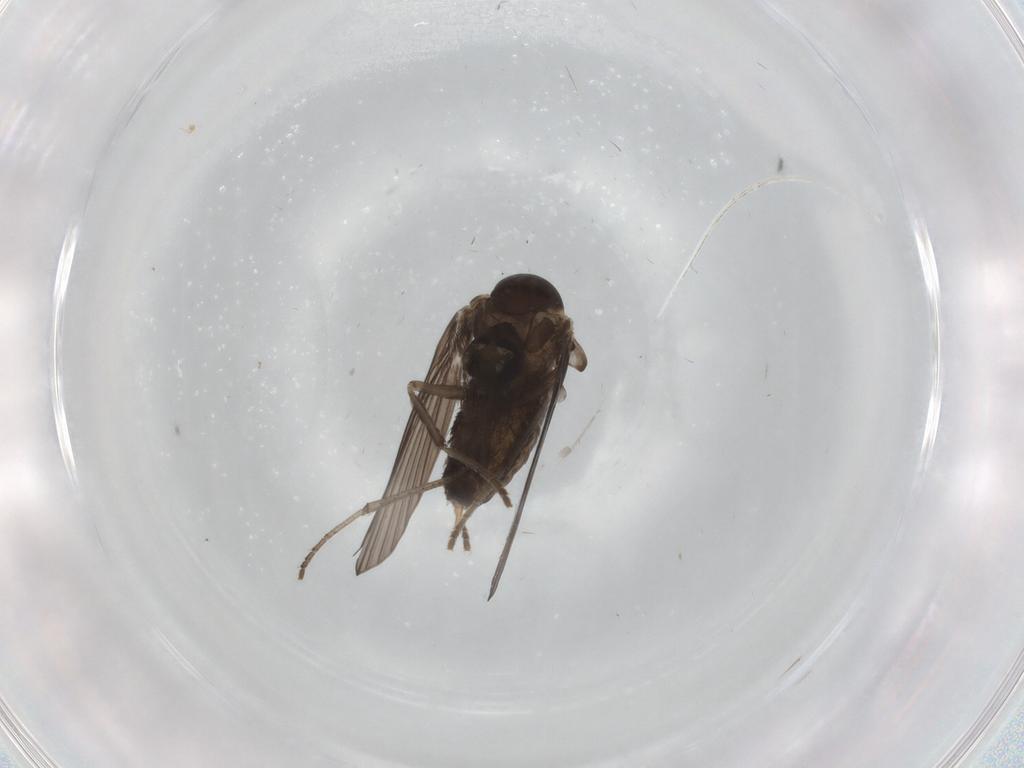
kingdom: Animalia
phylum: Arthropoda
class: Insecta
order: Diptera
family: Psychodidae
